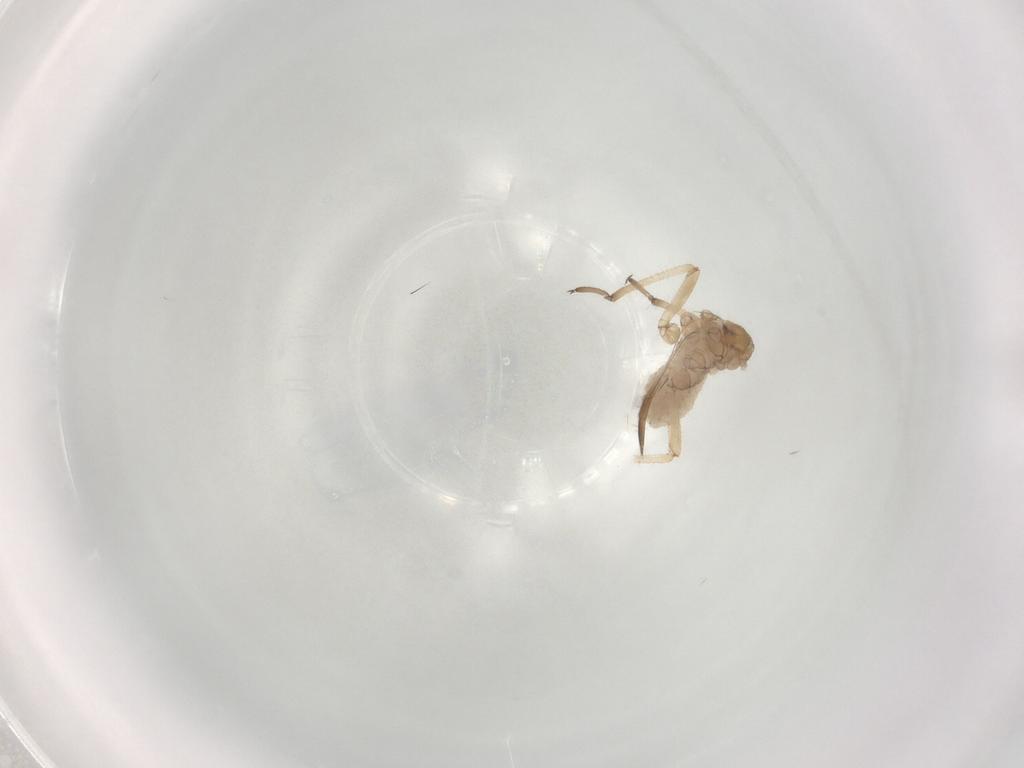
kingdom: Animalia
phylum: Arthropoda
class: Insecta
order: Hemiptera
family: Aphididae
